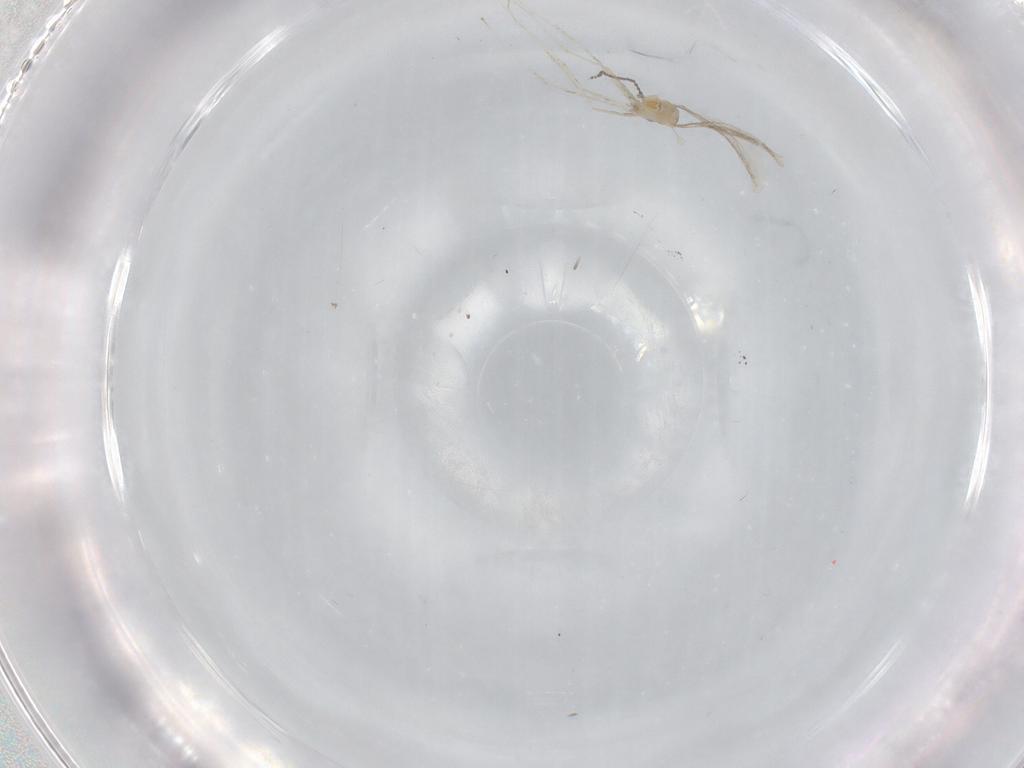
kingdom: Animalia
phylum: Arthropoda
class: Insecta
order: Diptera
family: Cecidomyiidae
